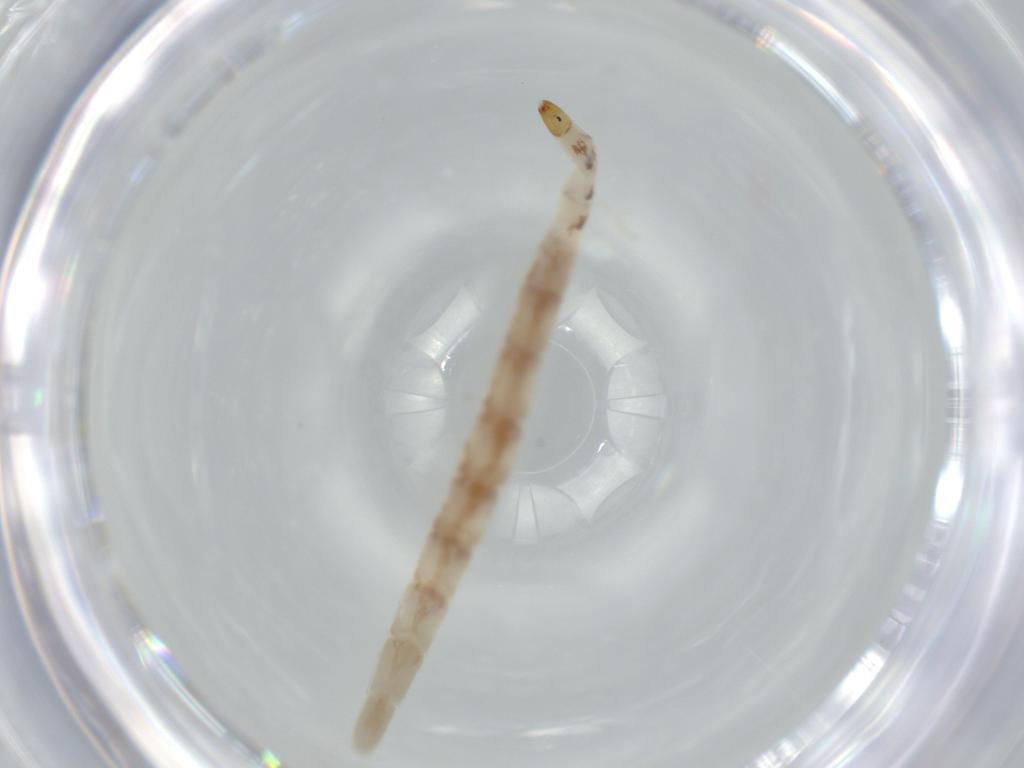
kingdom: Animalia
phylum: Arthropoda
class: Insecta
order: Diptera
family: Ceratopogonidae
